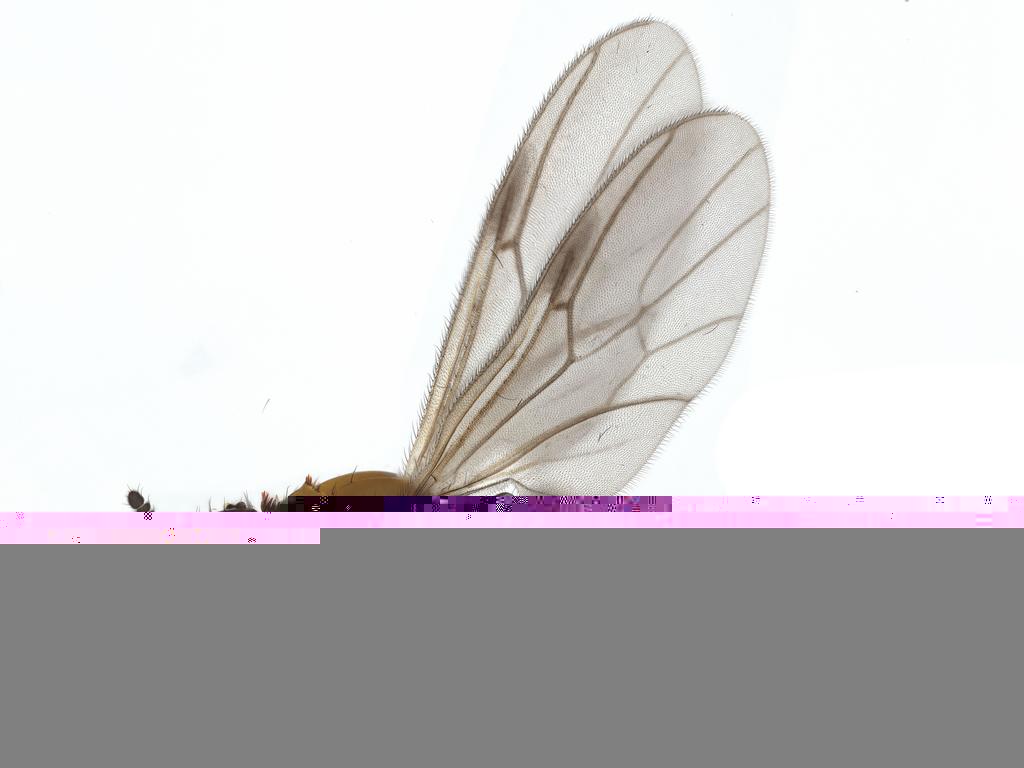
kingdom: Animalia
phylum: Arthropoda
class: Insecta
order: Diptera
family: Bibionidae
